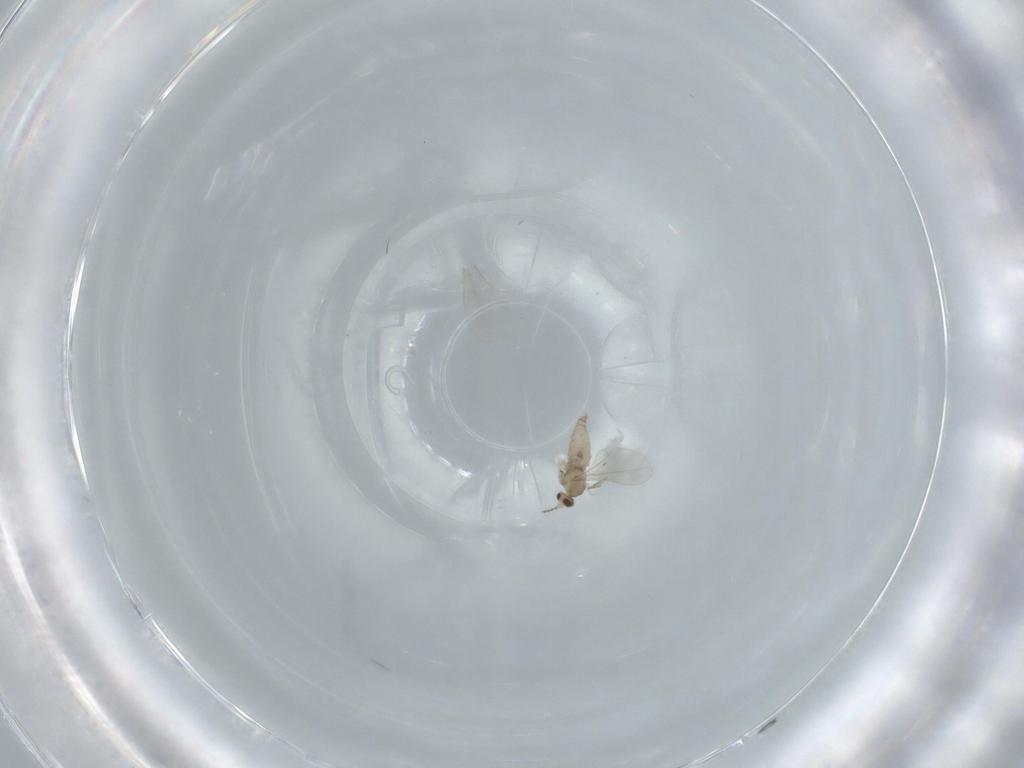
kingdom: Animalia
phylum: Arthropoda
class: Insecta
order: Diptera
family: Cecidomyiidae
